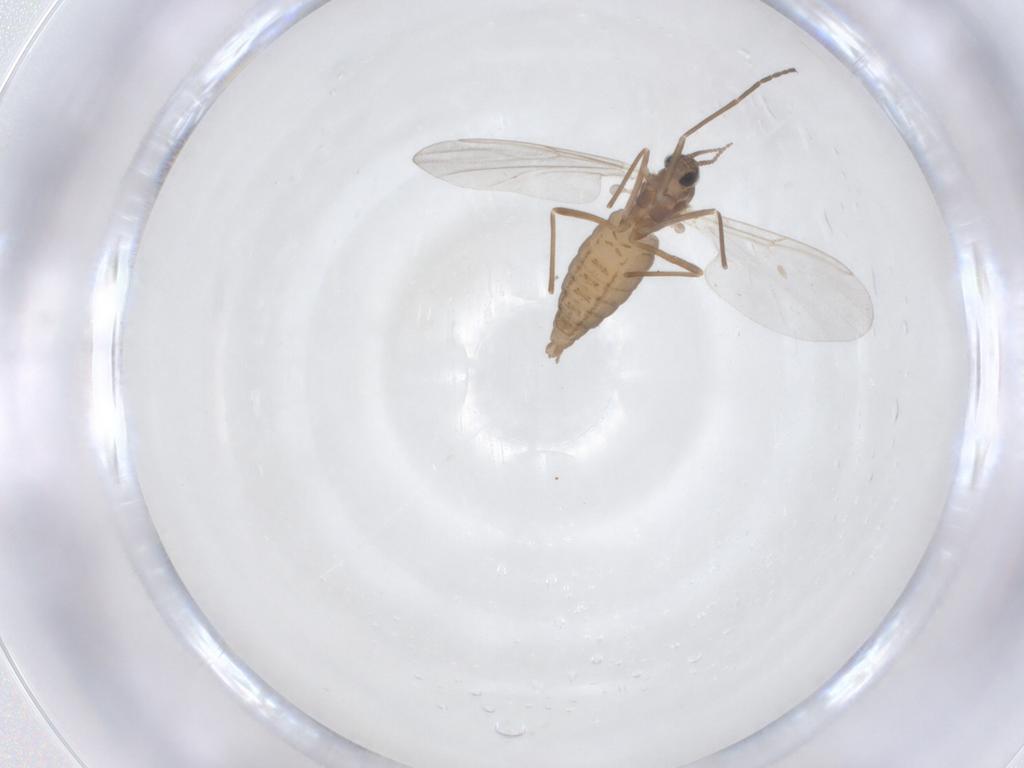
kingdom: Animalia
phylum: Arthropoda
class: Insecta
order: Diptera
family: Cecidomyiidae
